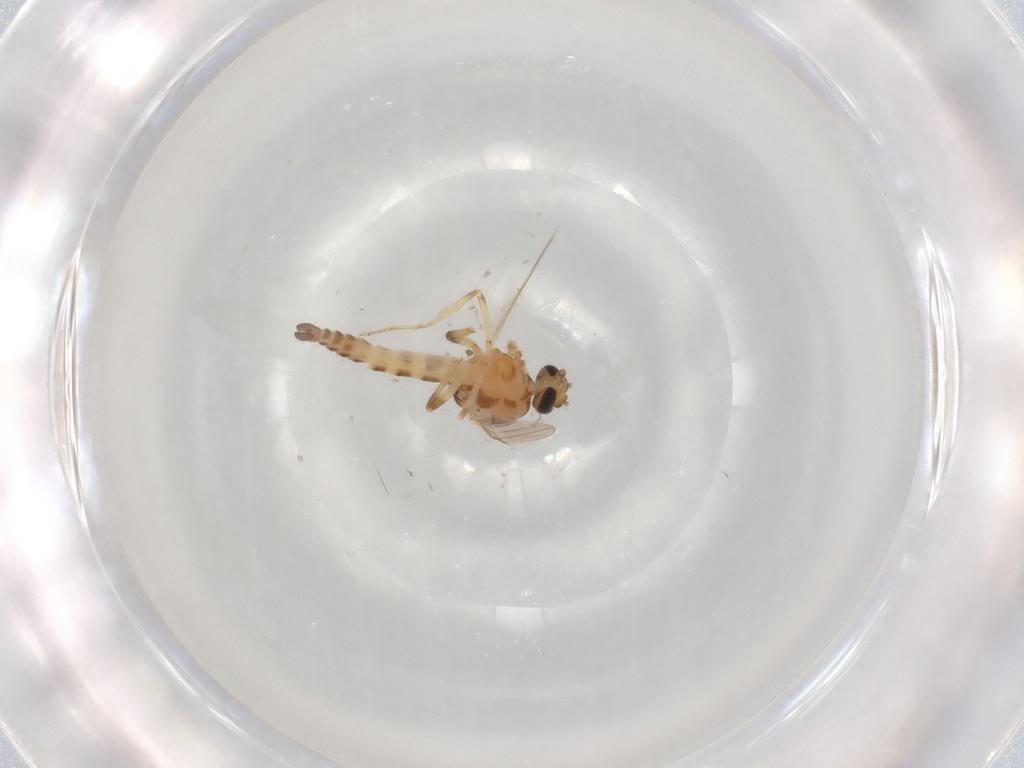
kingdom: Animalia
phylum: Arthropoda
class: Insecta
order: Diptera
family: Ceratopogonidae
